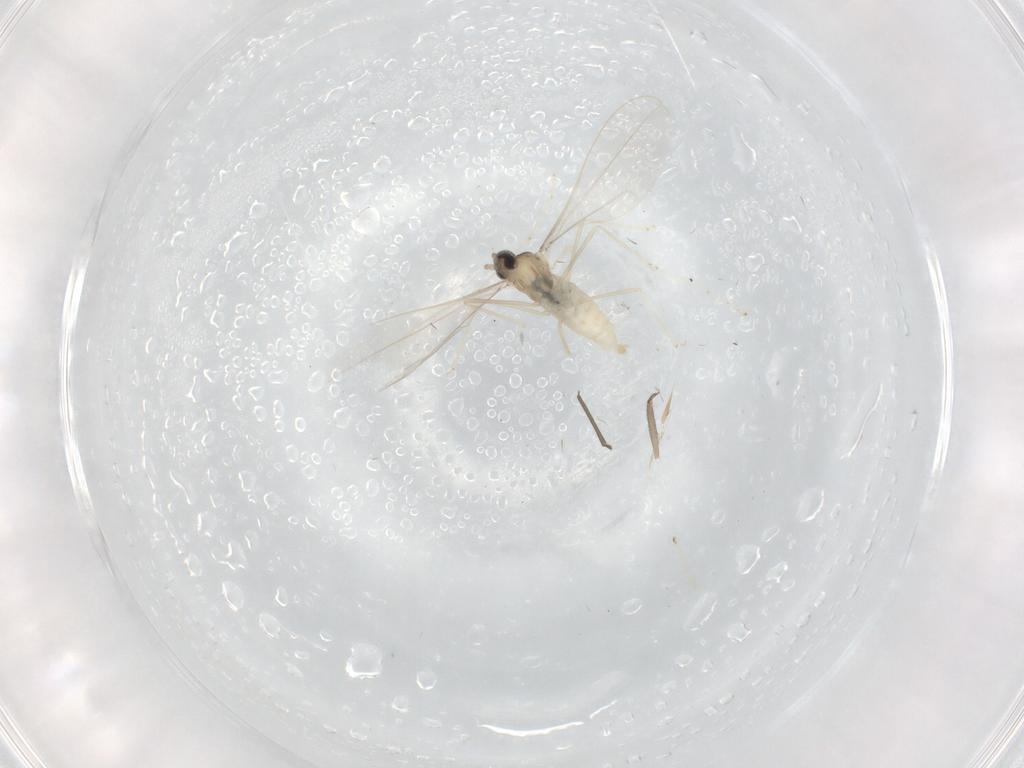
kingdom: Animalia
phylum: Arthropoda
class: Insecta
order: Diptera
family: Cecidomyiidae
